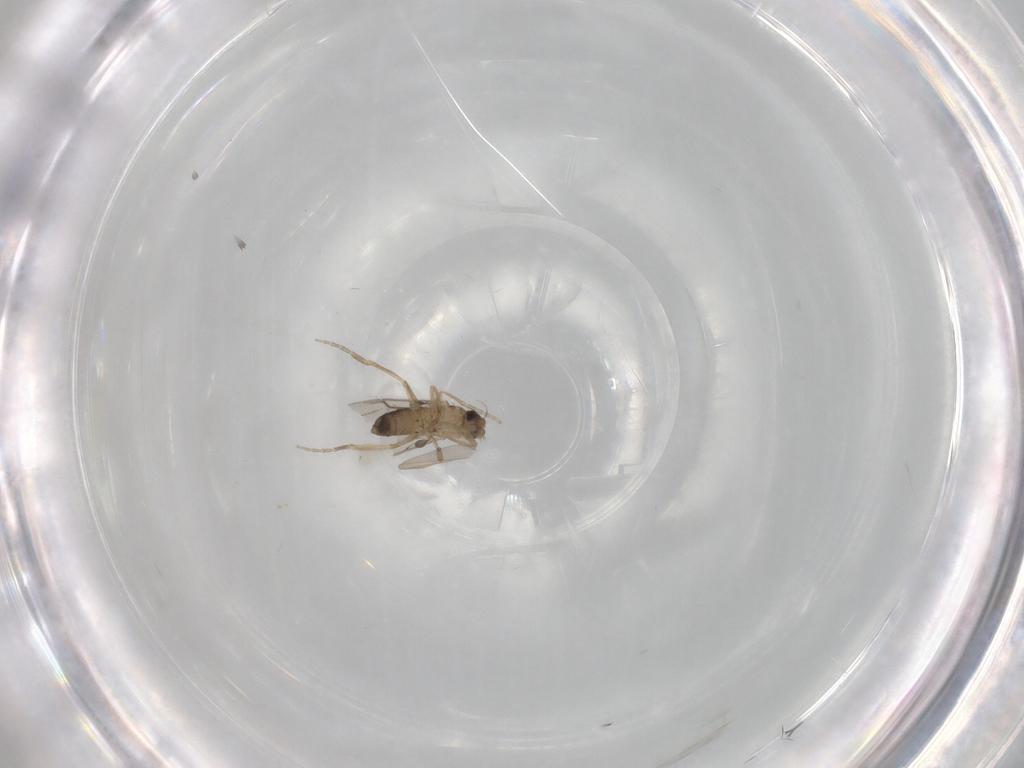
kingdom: Animalia
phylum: Arthropoda
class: Insecta
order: Diptera
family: Phoridae
